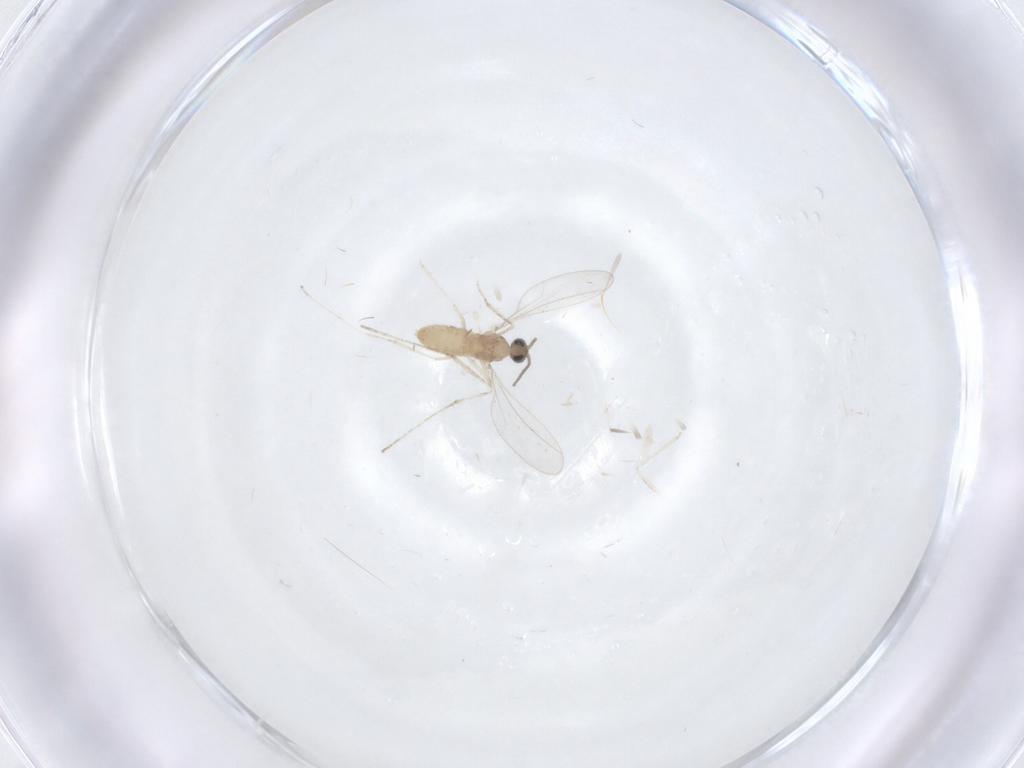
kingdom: Animalia
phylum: Arthropoda
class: Insecta
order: Diptera
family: Cecidomyiidae
